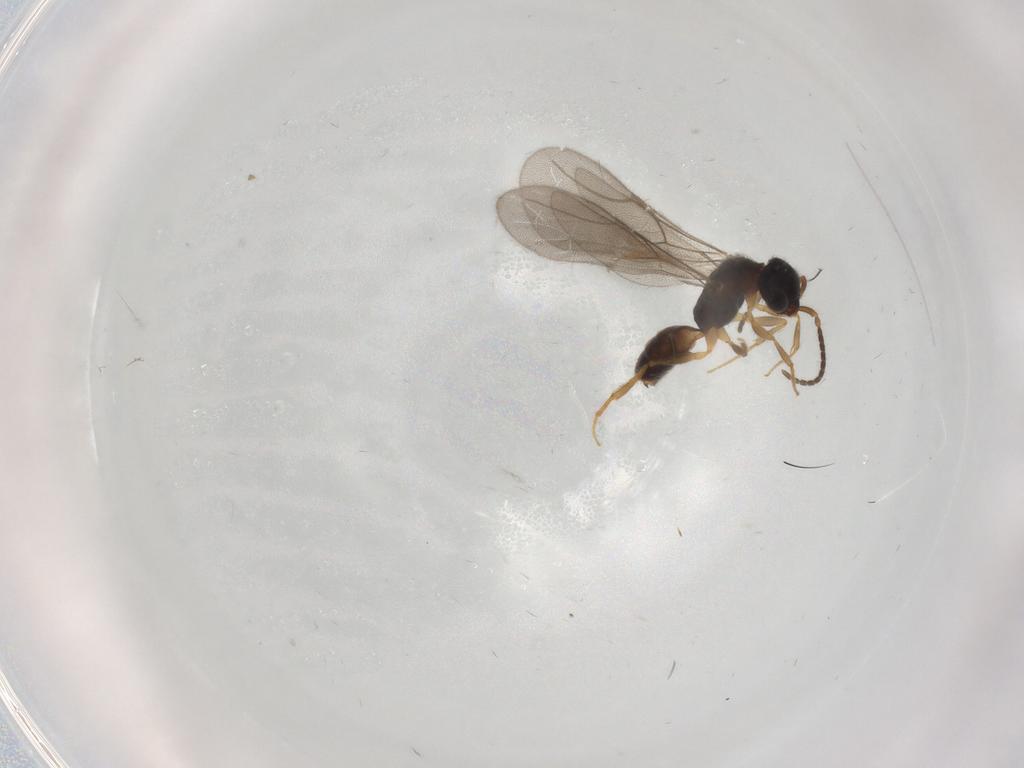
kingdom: Animalia
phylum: Arthropoda
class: Insecta
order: Hymenoptera
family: Bethylidae
